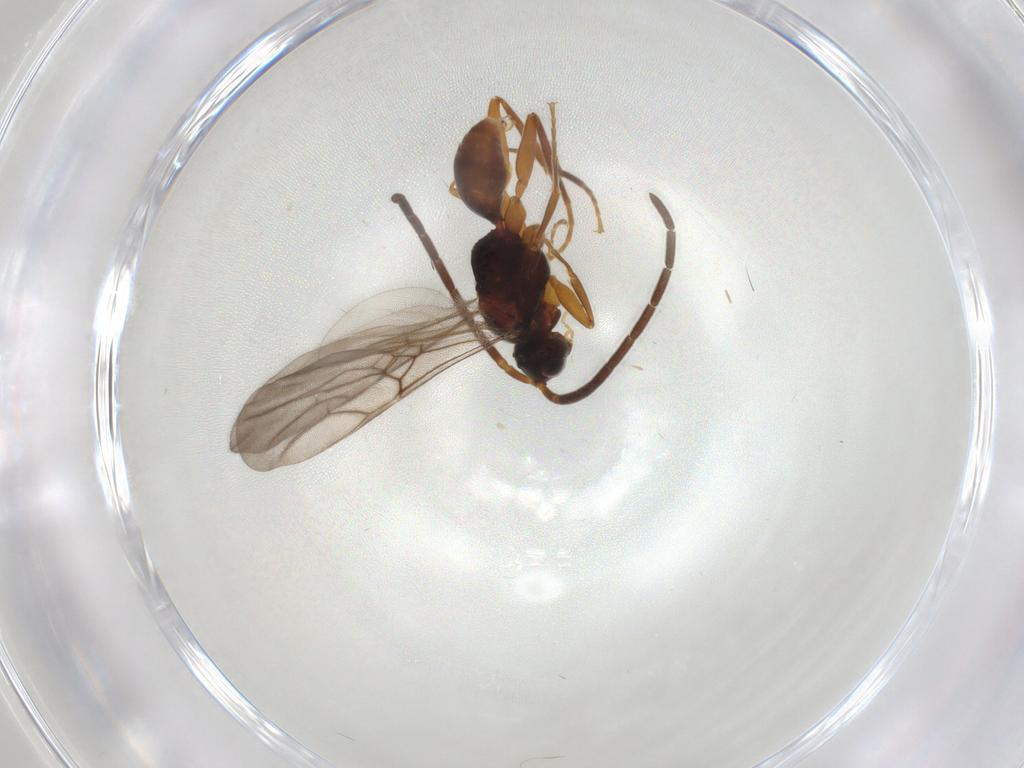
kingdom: Animalia
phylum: Arthropoda
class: Insecta
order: Hymenoptera
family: Embolemidae
